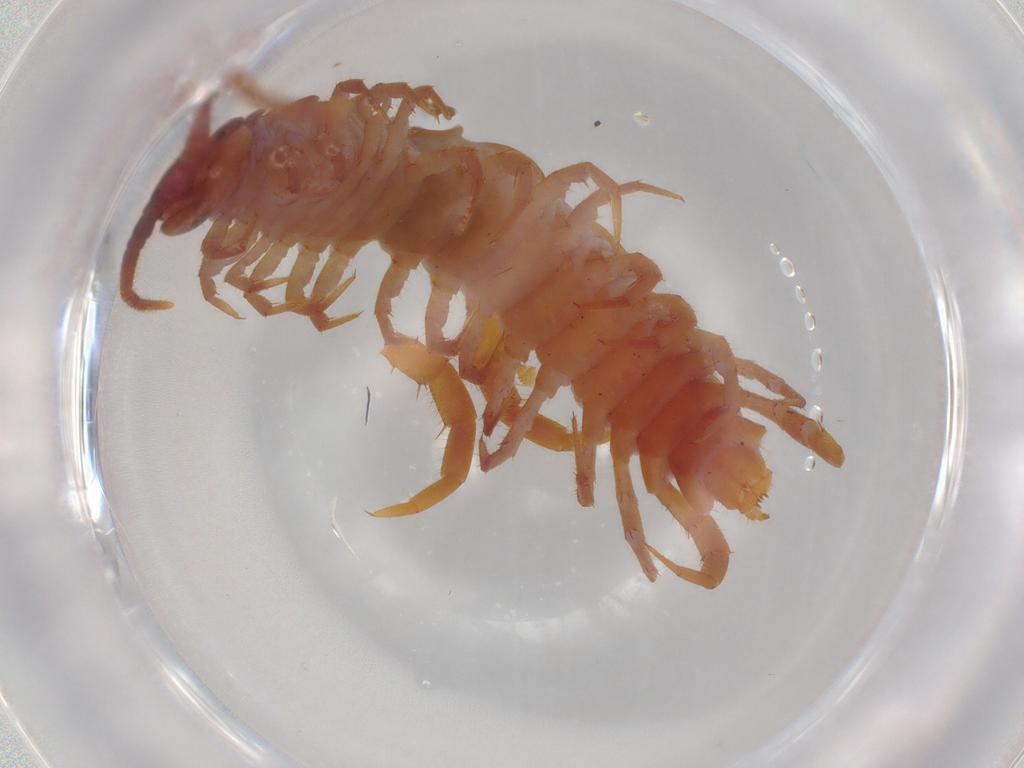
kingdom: Animalia
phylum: Arthropoda
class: Chilopoda
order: Lithobiomorpha
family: Lithobiidae
